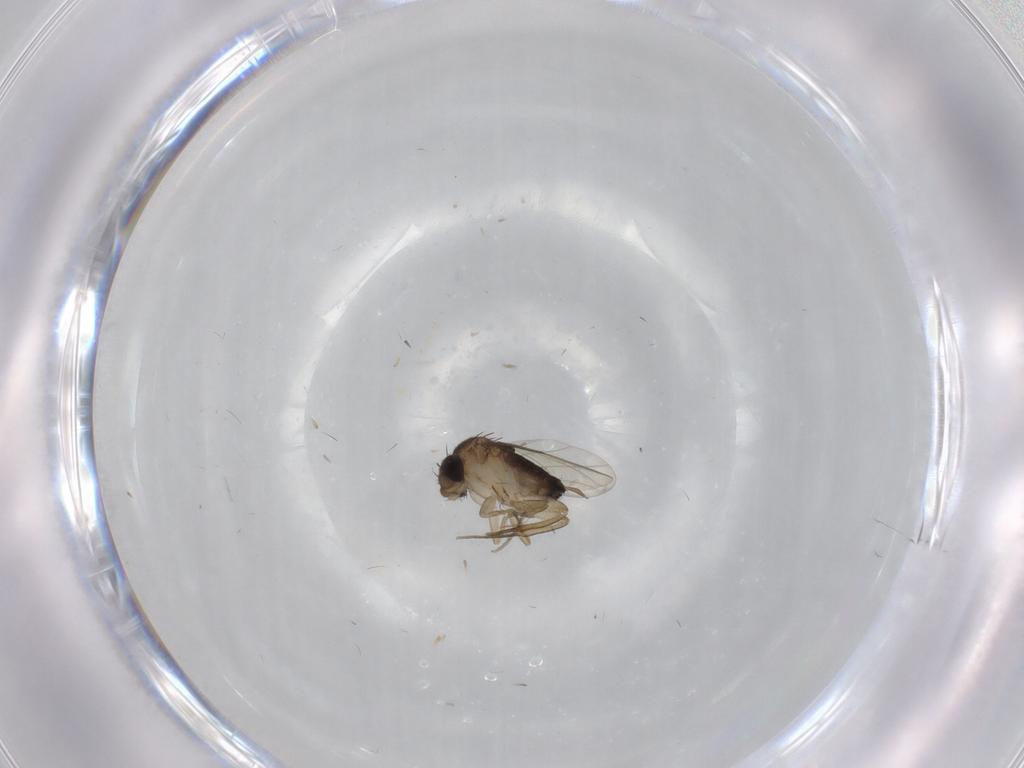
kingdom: Animalia
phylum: Arthropoda
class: Insecta
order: Diptera
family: Cecidomyiidae
